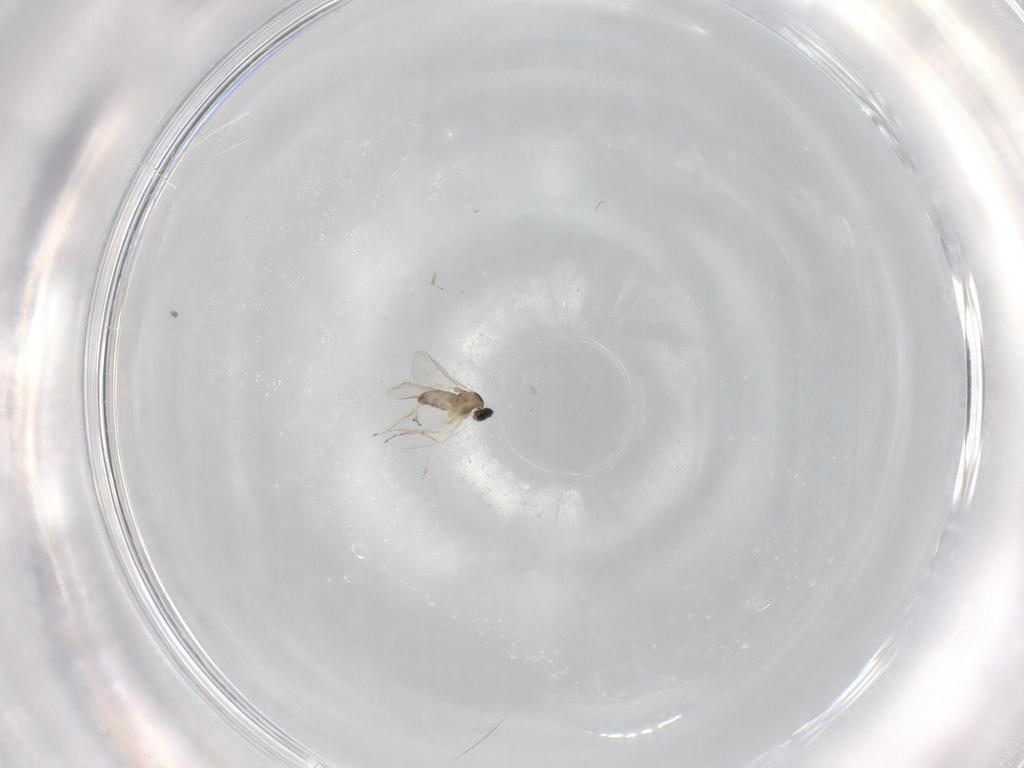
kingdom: Animalia
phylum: Arthropoda
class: Insecta
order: Diptera
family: Cecidomyiidae
